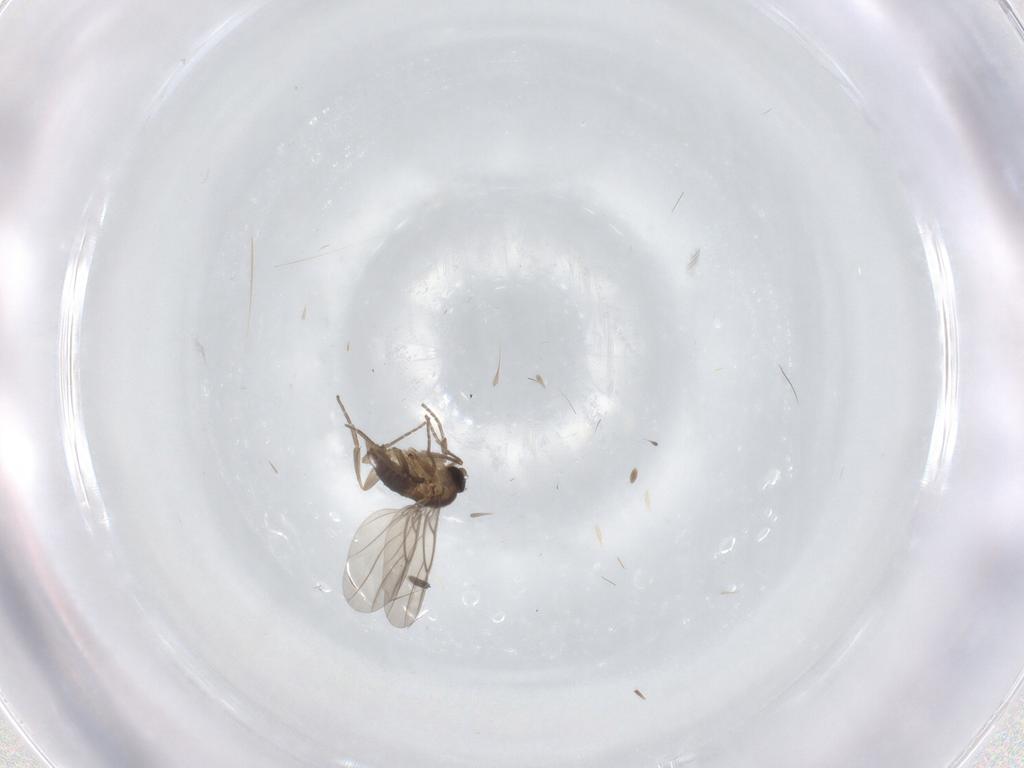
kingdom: Animalia
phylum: Arthropoda
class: Insecta
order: Diptera
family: Phoridae
